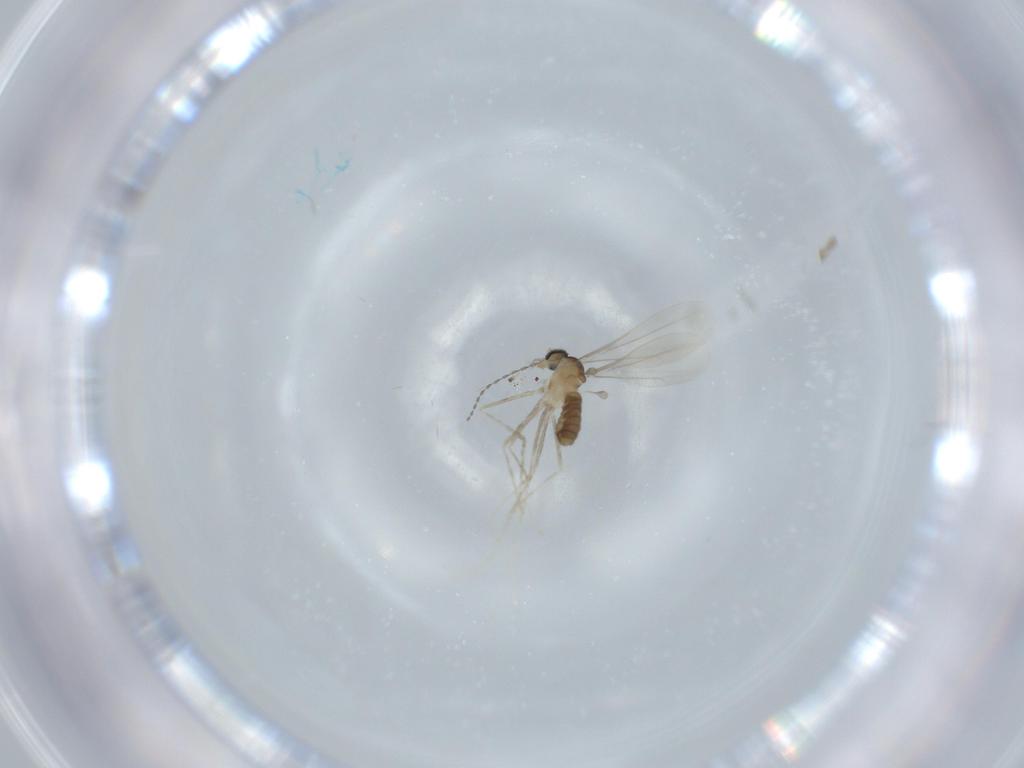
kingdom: Animalia
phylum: Arthropoda
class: Insecta
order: Diptera
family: Cecidomyiidae
